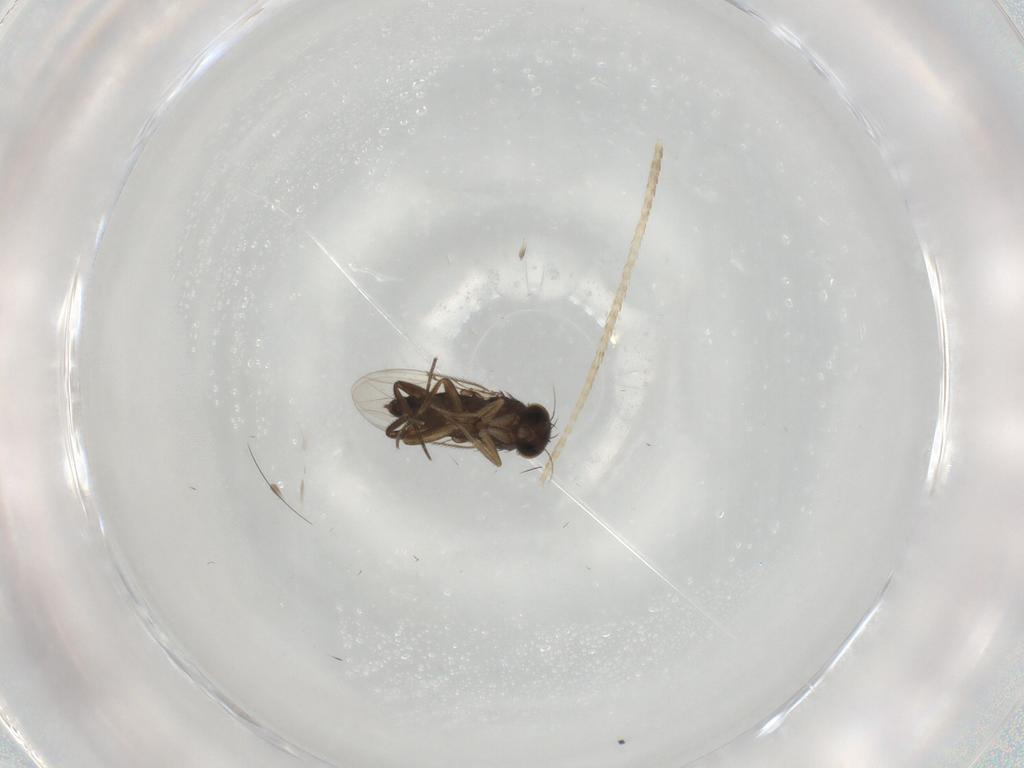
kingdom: Animalia
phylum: Arthropoda
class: Insecta
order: Diptera
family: Phoridae
